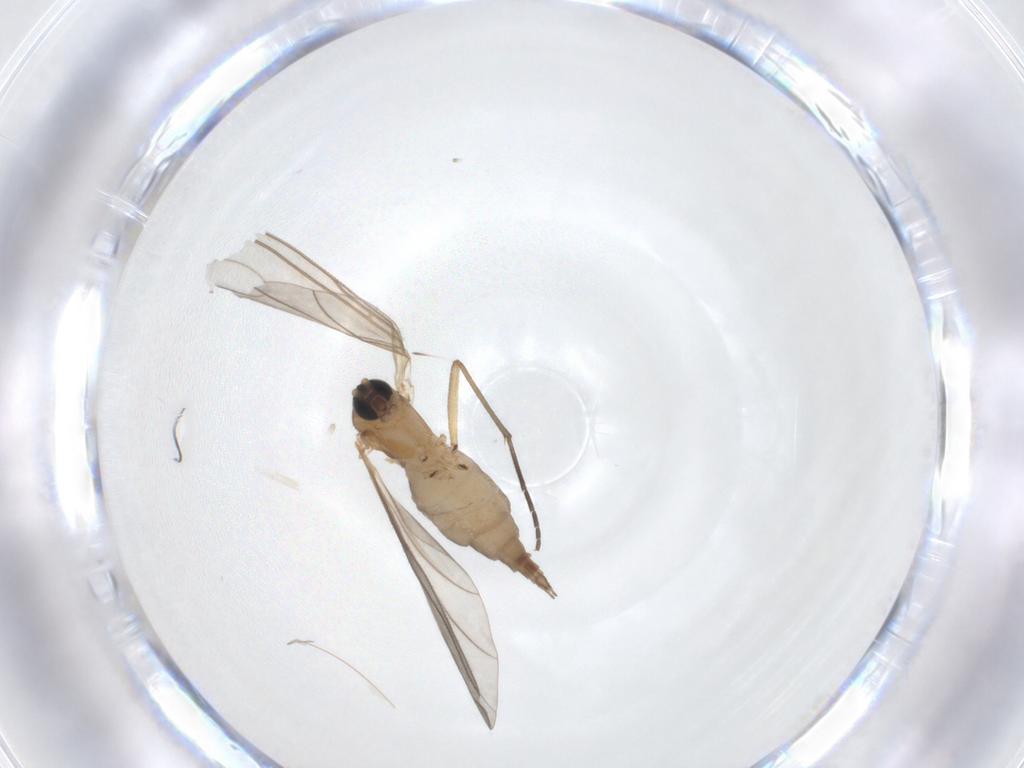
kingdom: Animalia
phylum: Arthropoda
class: Insecta
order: Diptera
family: Sciaridae
